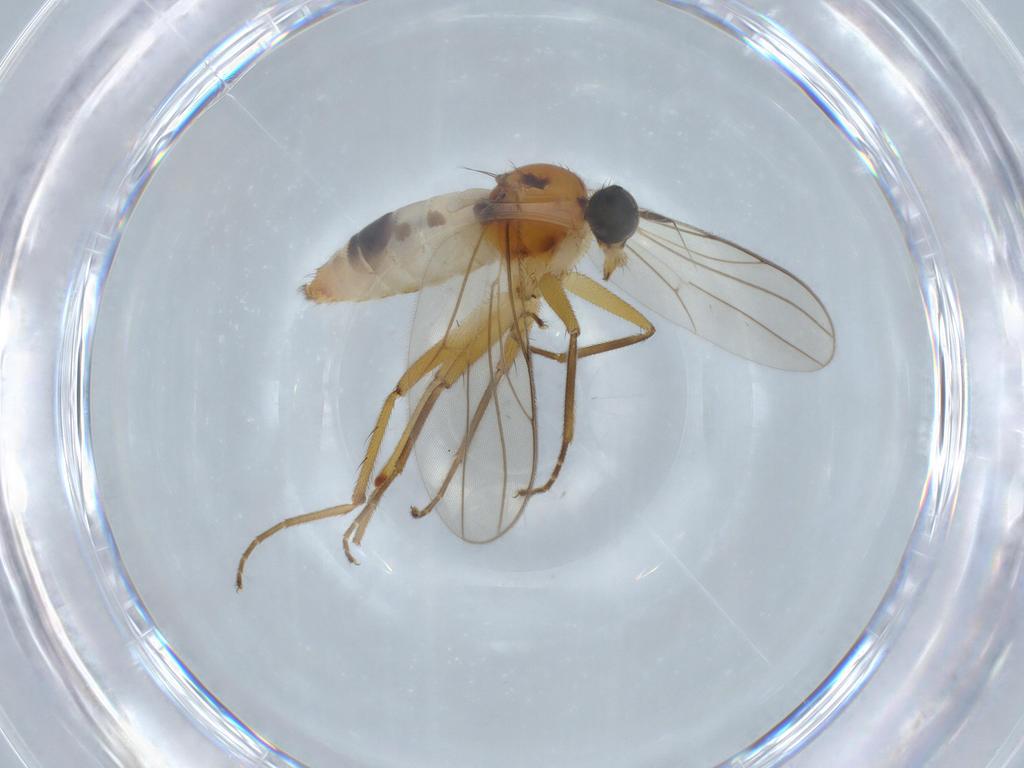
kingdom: Animalia
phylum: Arthropoda
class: Insecta
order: Diptera
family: Hybotidae
